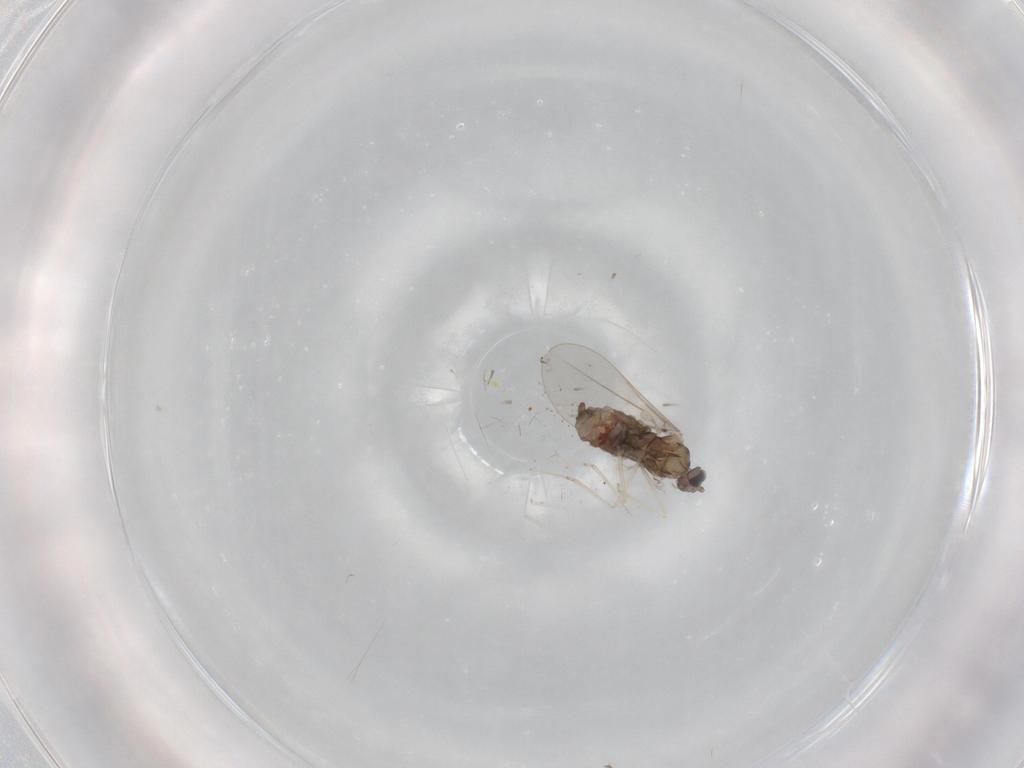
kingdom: Animalia
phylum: Arthropoda
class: Insecta
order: Diptera
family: Cecidomyiidae
